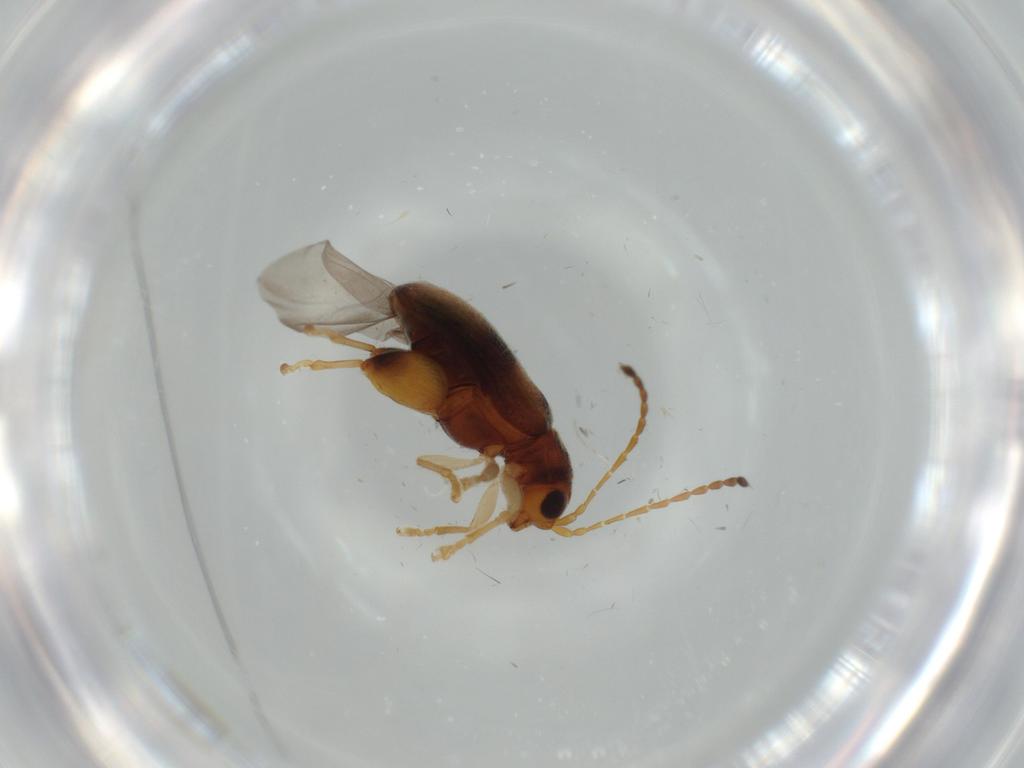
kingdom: Animalia
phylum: Arthropoda
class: Insecta
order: Coleoptera
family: Chrysomelidae
